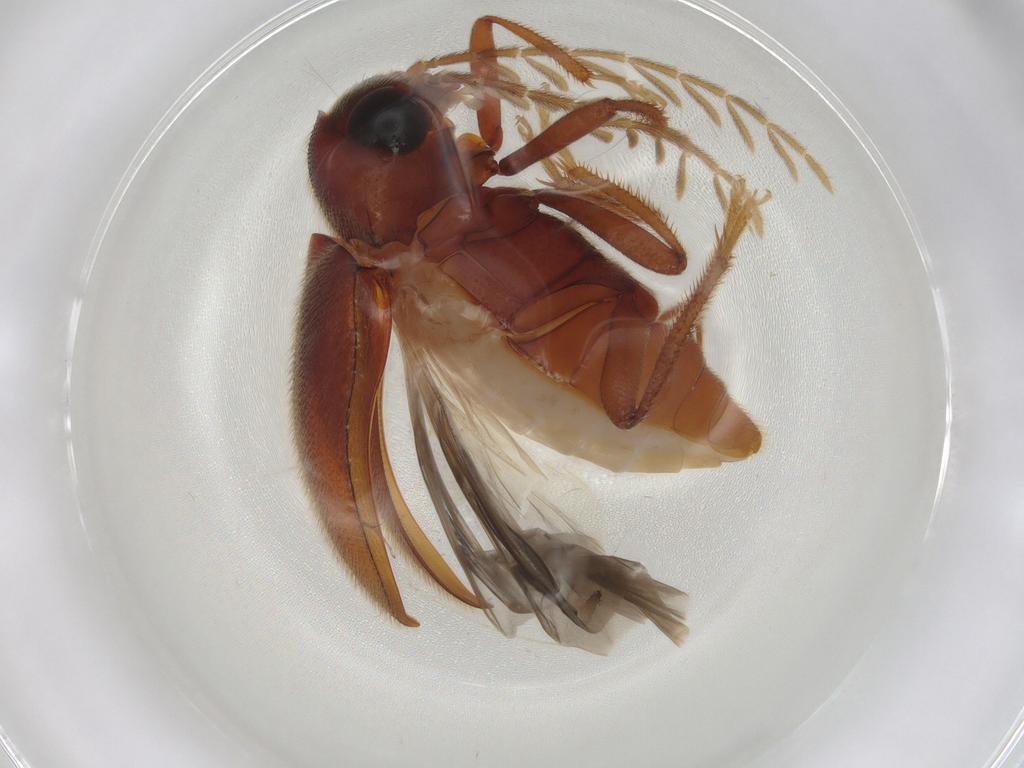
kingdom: Animalia
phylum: Arthropoda
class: Insecta
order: Coleoptera
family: Ptilodactylidae
